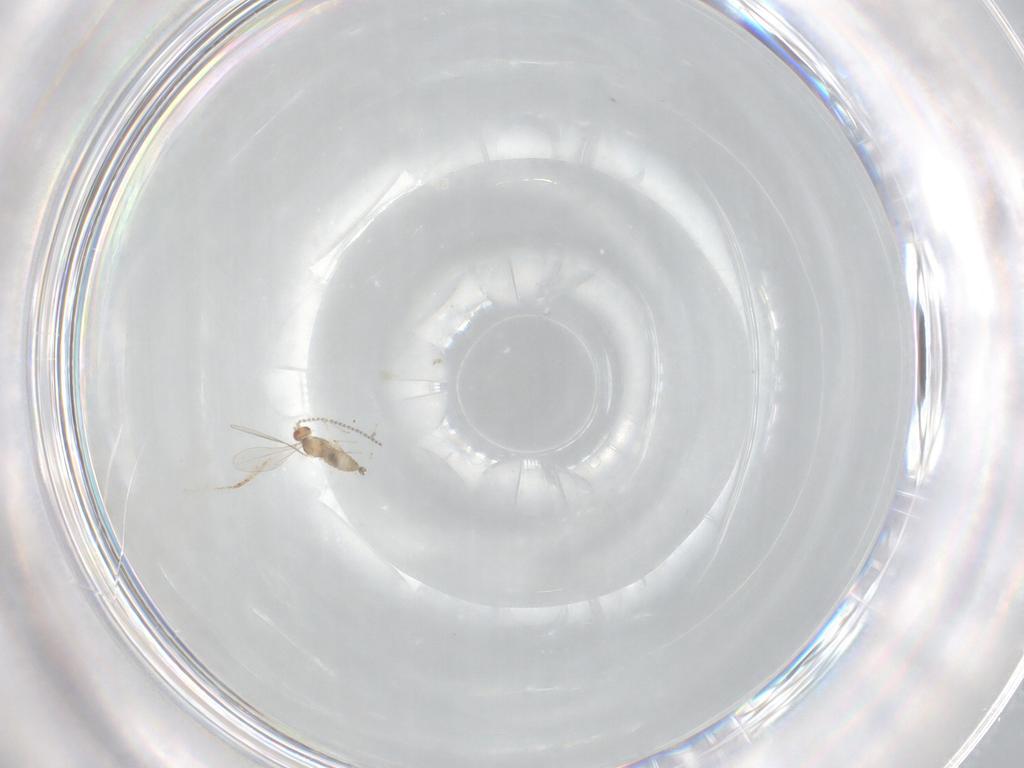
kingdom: Animalia
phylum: Arthropoda
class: Insecta
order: Diptera
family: Cecidomyiidae
